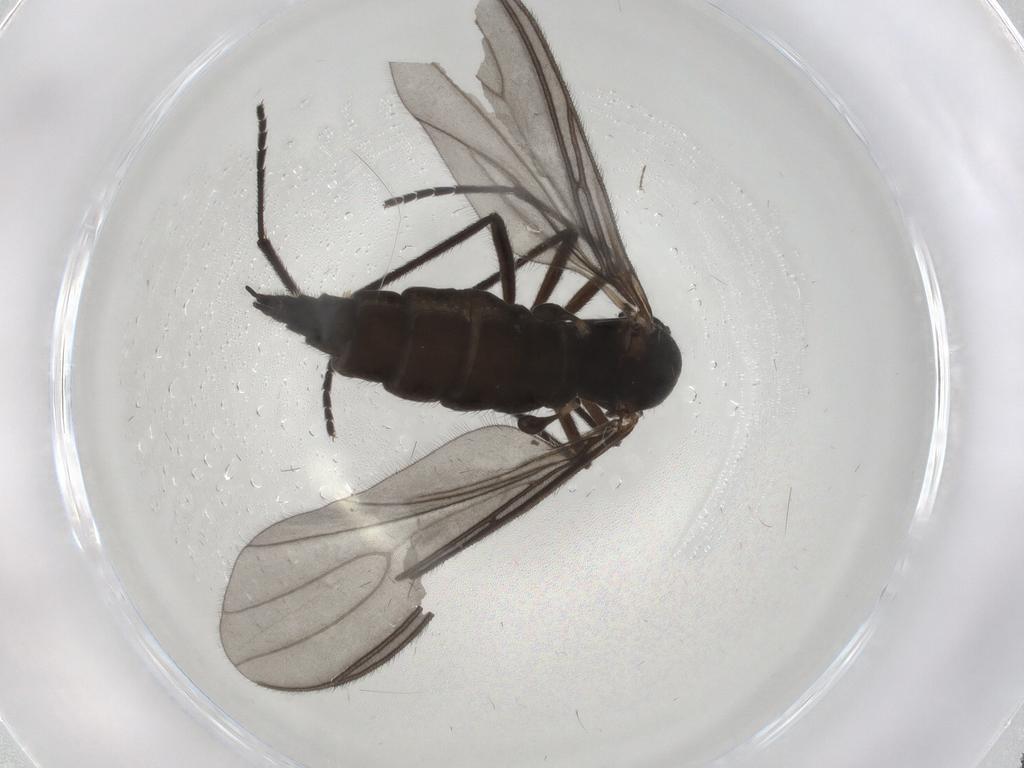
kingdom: Animalia
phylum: Arthropoda
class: Insecta
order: Diptera
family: Sciaridae
